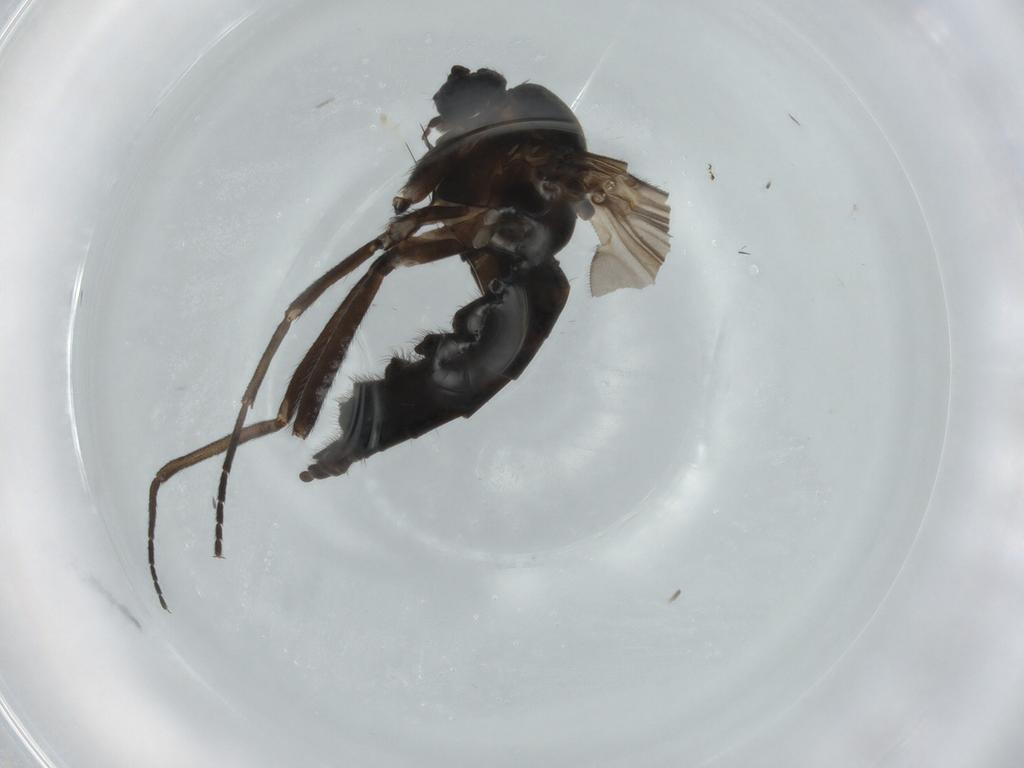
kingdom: Animalia
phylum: Arthropoda
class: Insecta
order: Diptera
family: Sciaridae
